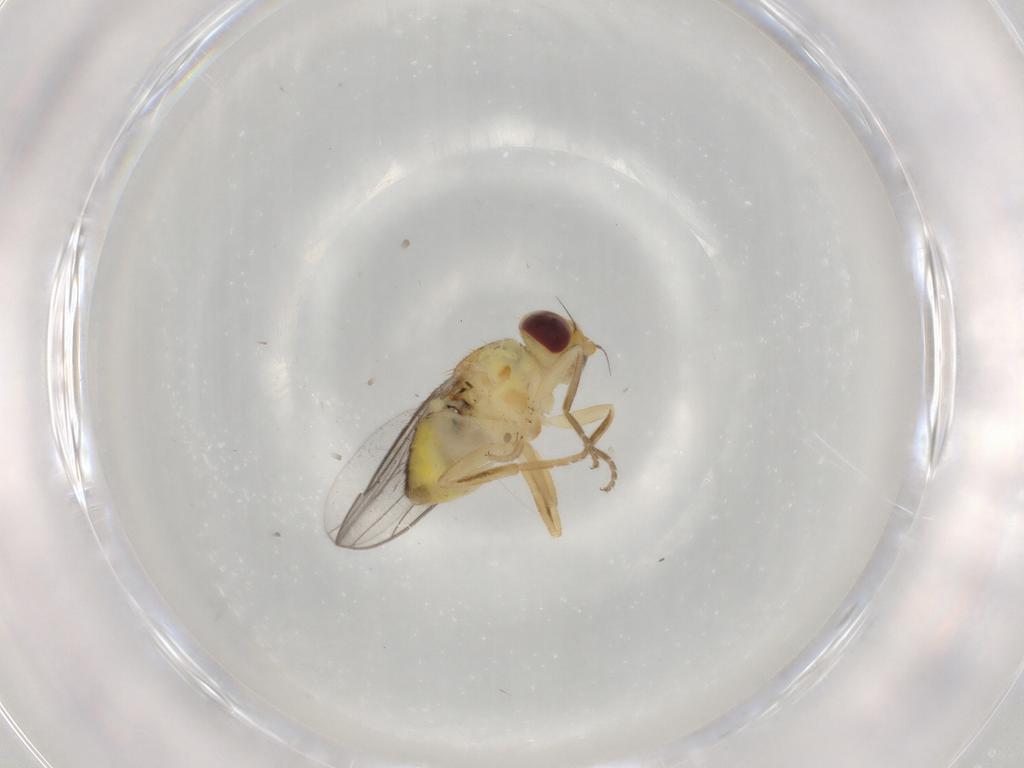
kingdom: Animalia
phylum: Arthropoda
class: Insecta
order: Diptera
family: Chloropidae
